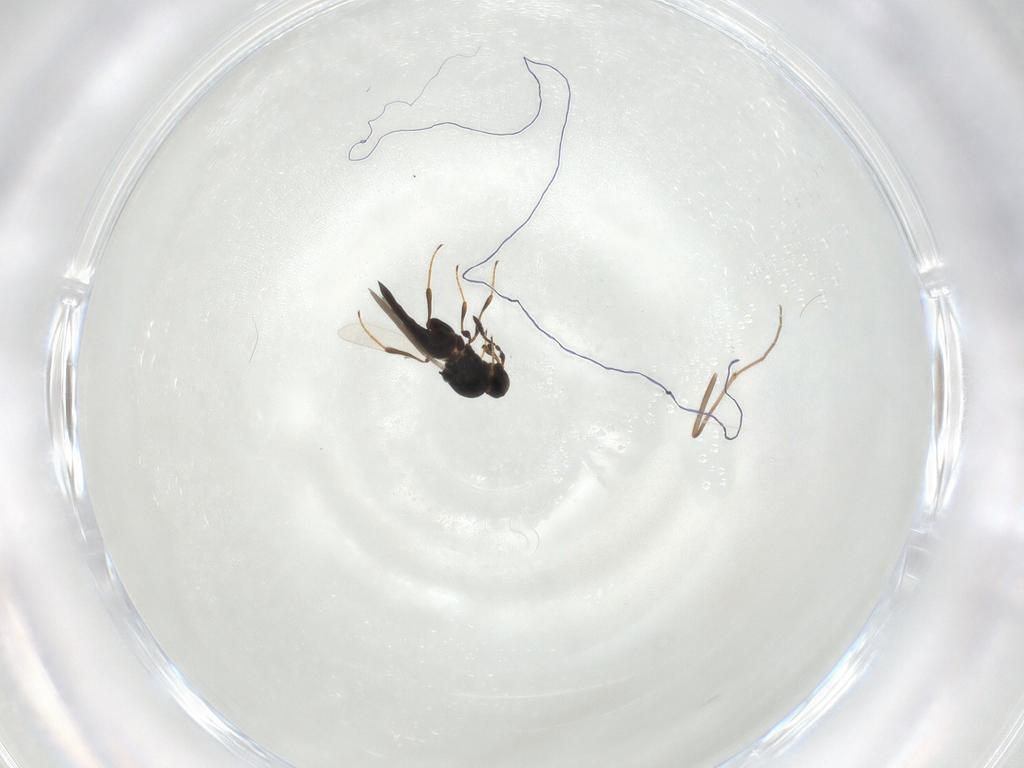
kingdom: Animalia
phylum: Arthropoda
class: Insecta
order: Hymenoptera
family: Platygastridae
